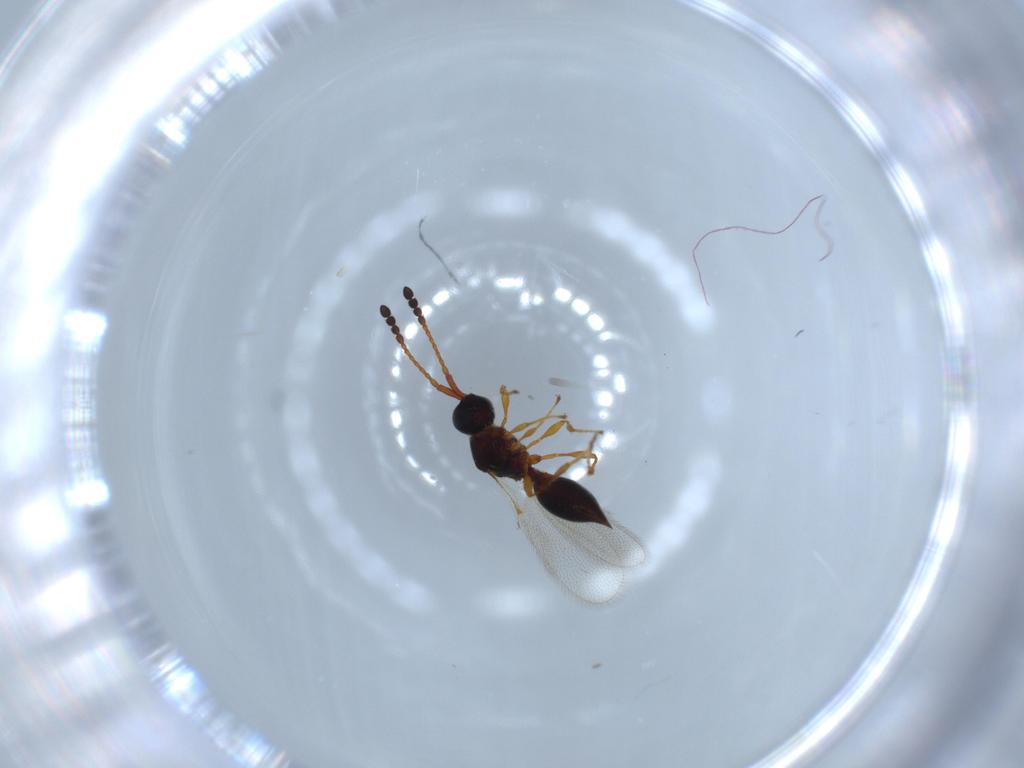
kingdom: Animalia
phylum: Arthropoda
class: Insecta
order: Hymenoptera
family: Diapriidae
